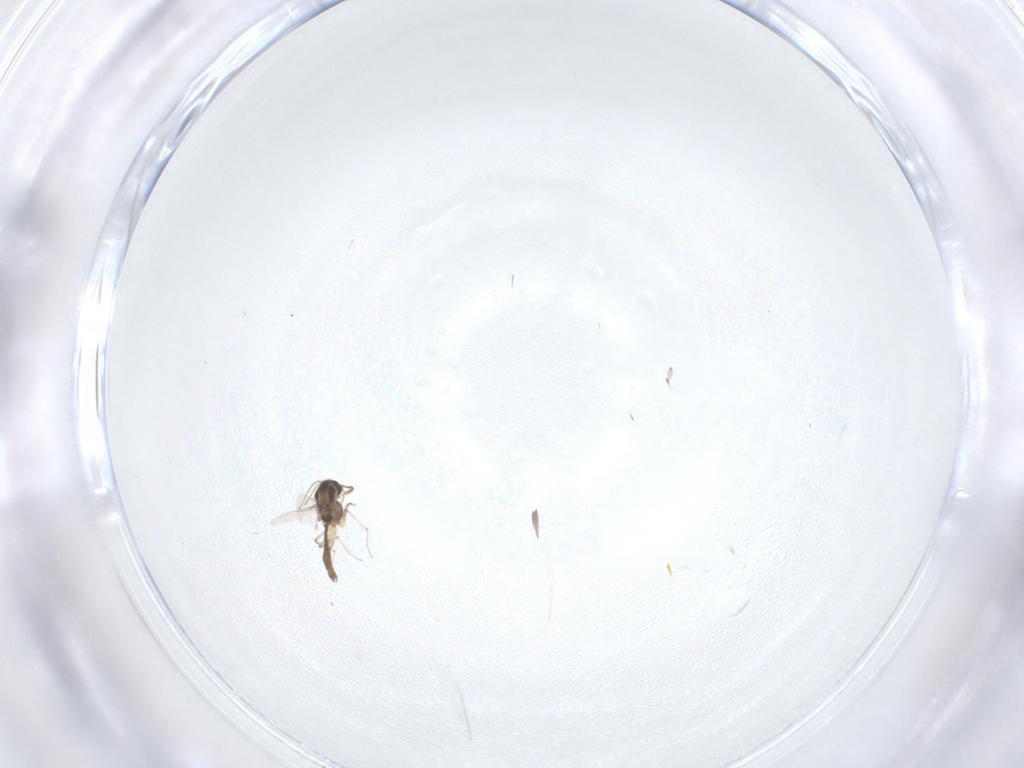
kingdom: Animalia
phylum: Arthropoda
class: Insecta
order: Diptera
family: Chironomidae
